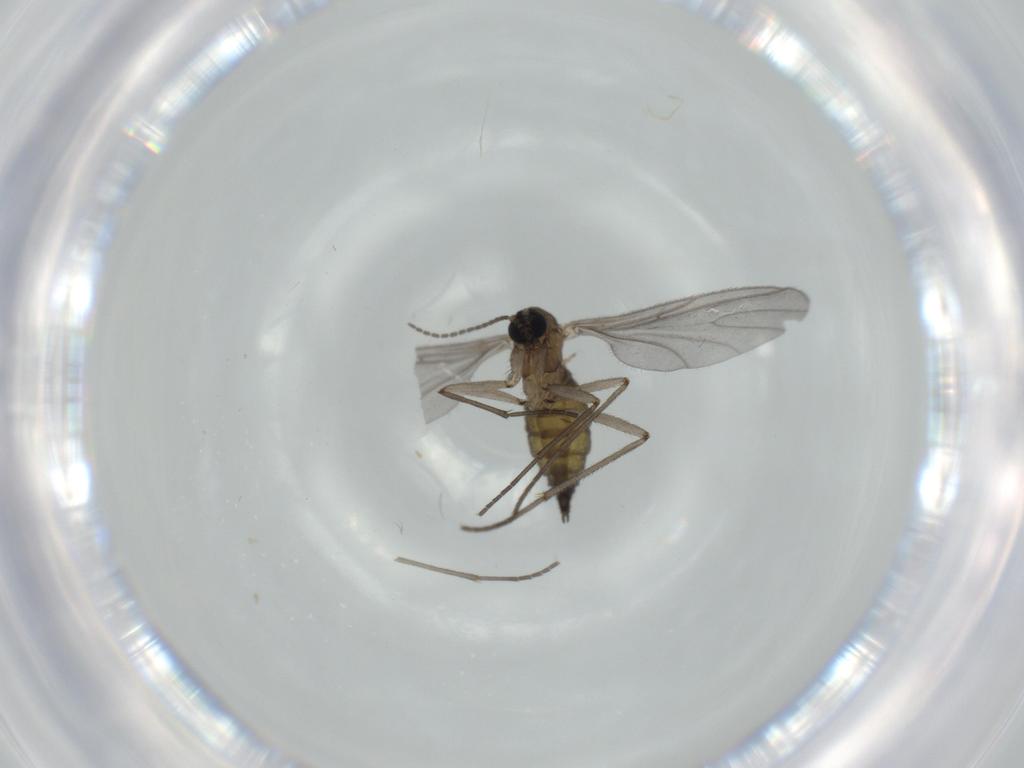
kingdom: Animalia
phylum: Arthropoda
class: Insecta
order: Diptera
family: Sciaridae
